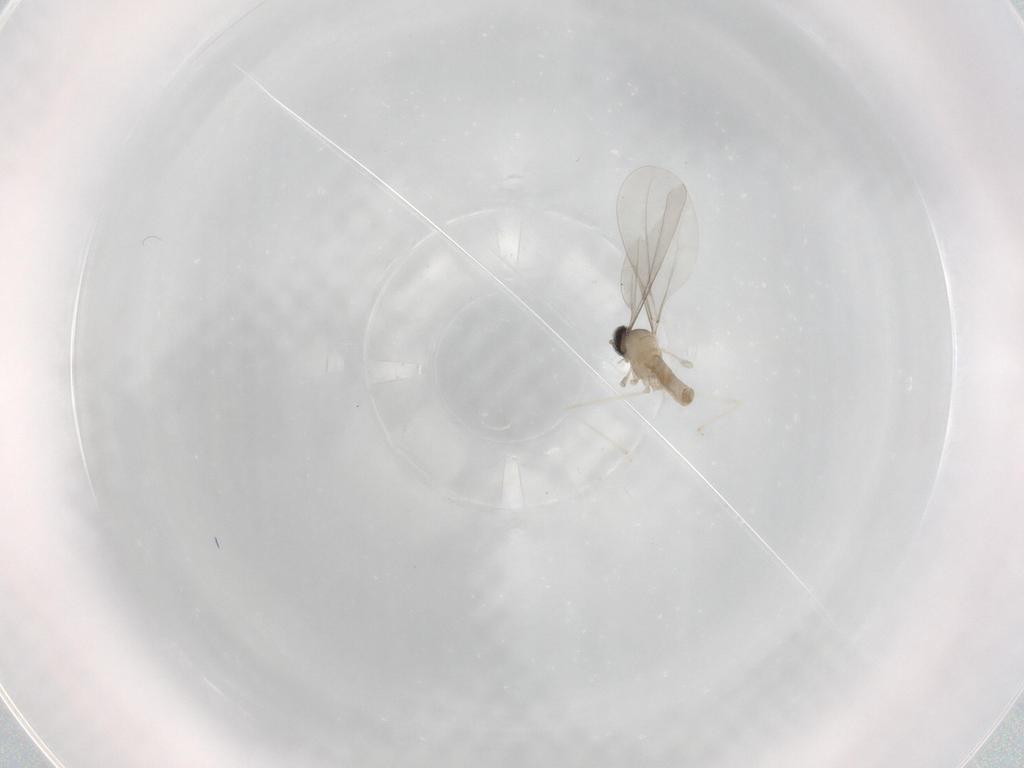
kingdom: Animalia
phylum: Arthropoda
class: Insecta
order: Diptera
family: Cecidomyiidae
